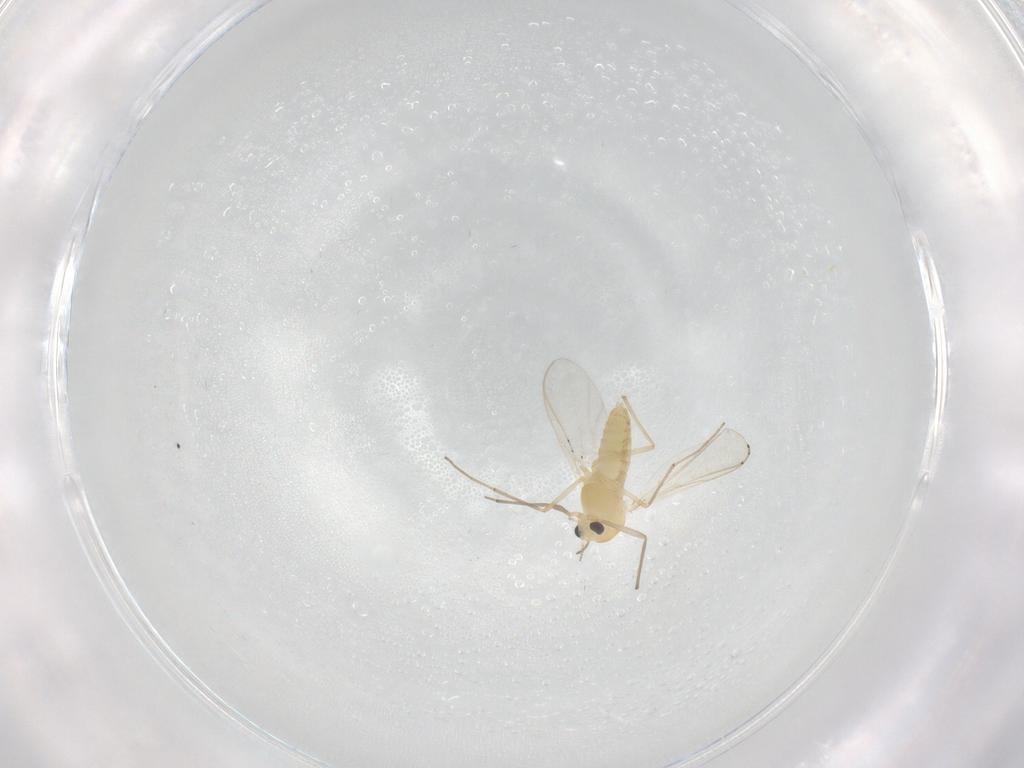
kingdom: Animalia
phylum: Arthropoda
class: Insecta
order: Diptera
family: Chironomidae
